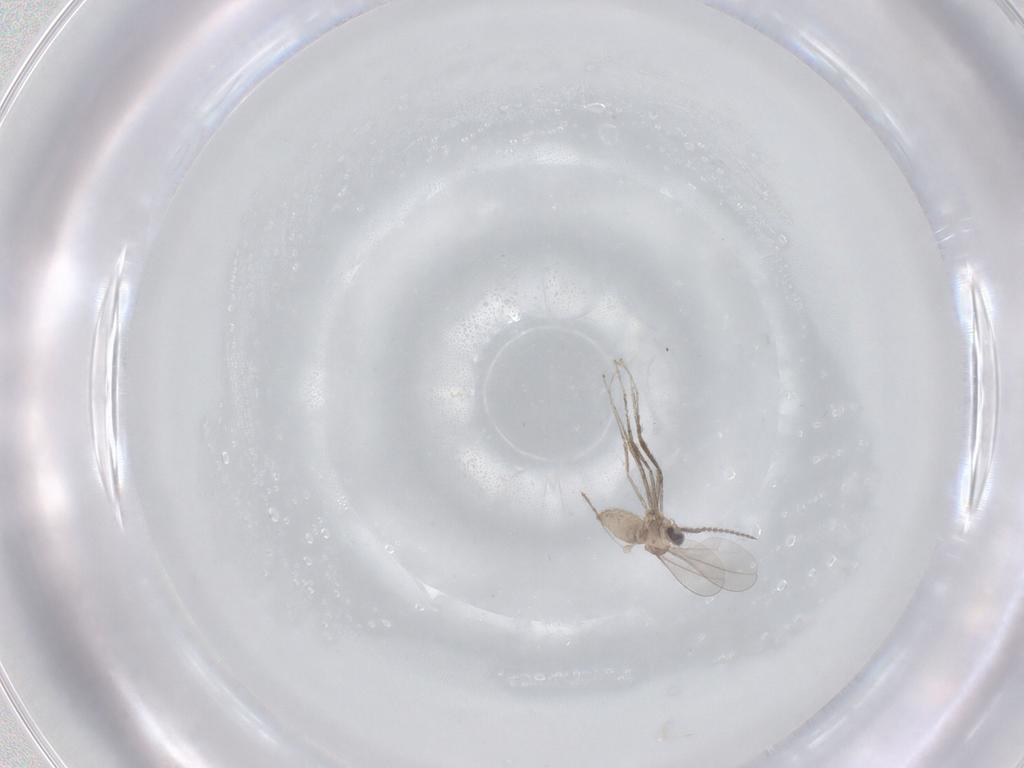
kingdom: Animalia
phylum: Arthropoda
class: Insecta
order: Diptera
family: Cecidomyiidae
